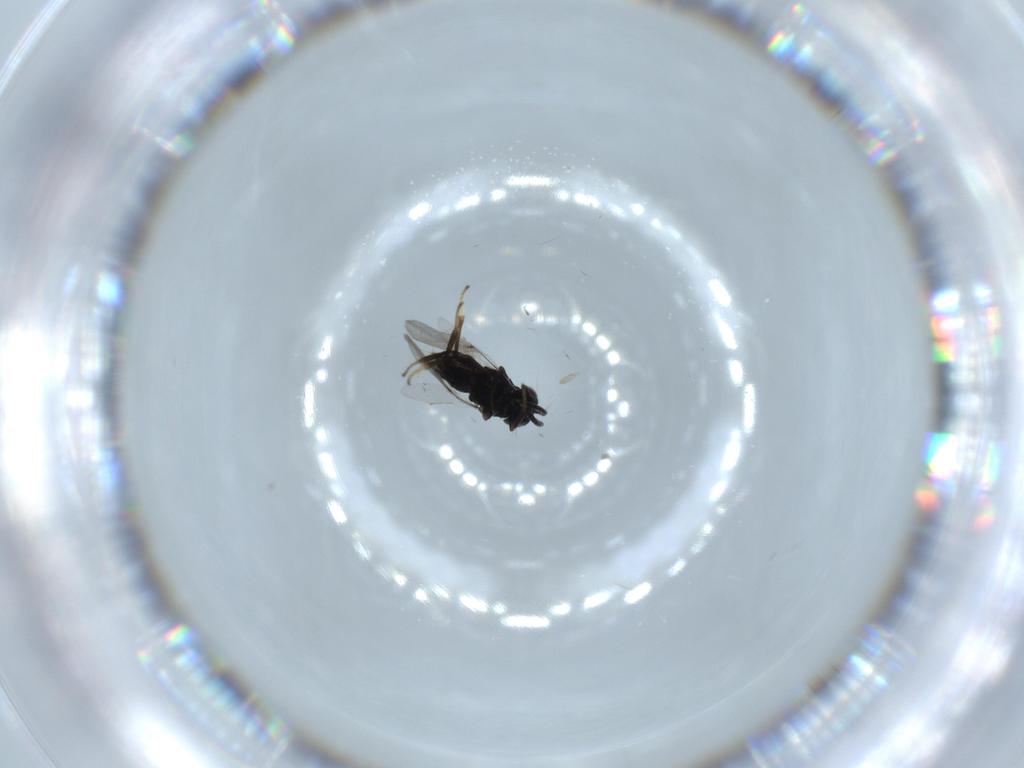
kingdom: Animalia
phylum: Arthropoda
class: Insecta
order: Hymenoptera
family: Encyrtidae
